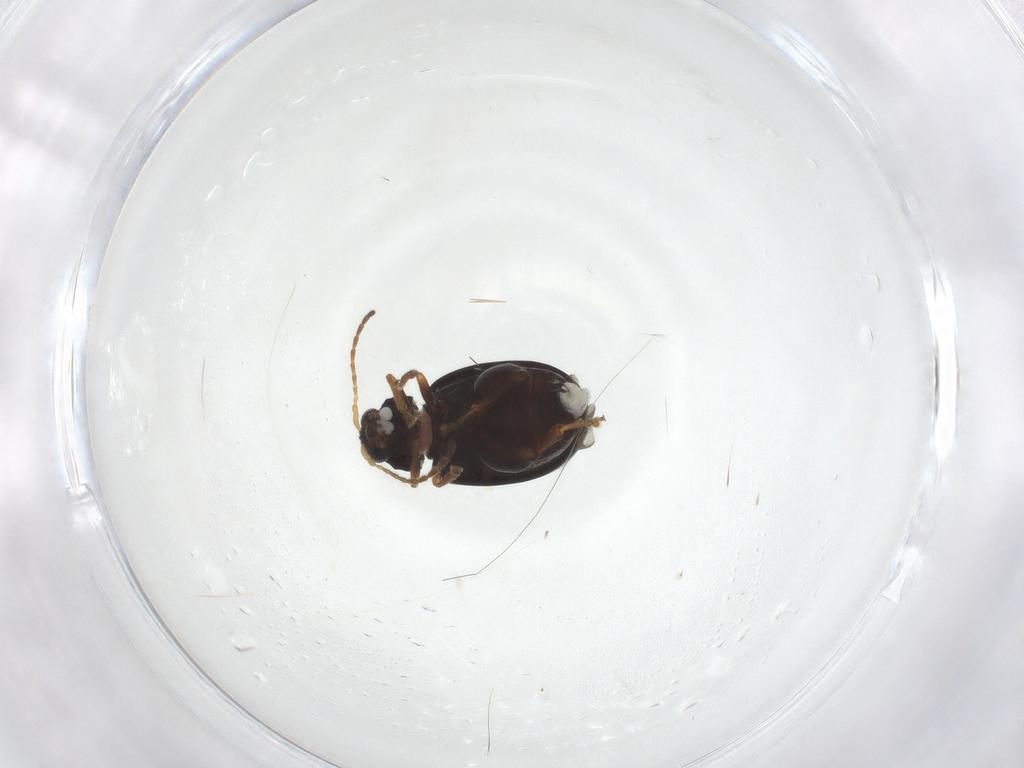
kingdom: Animalia
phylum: Arthropoda
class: Insecta
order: Coleoptera
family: Chrysomelidae
